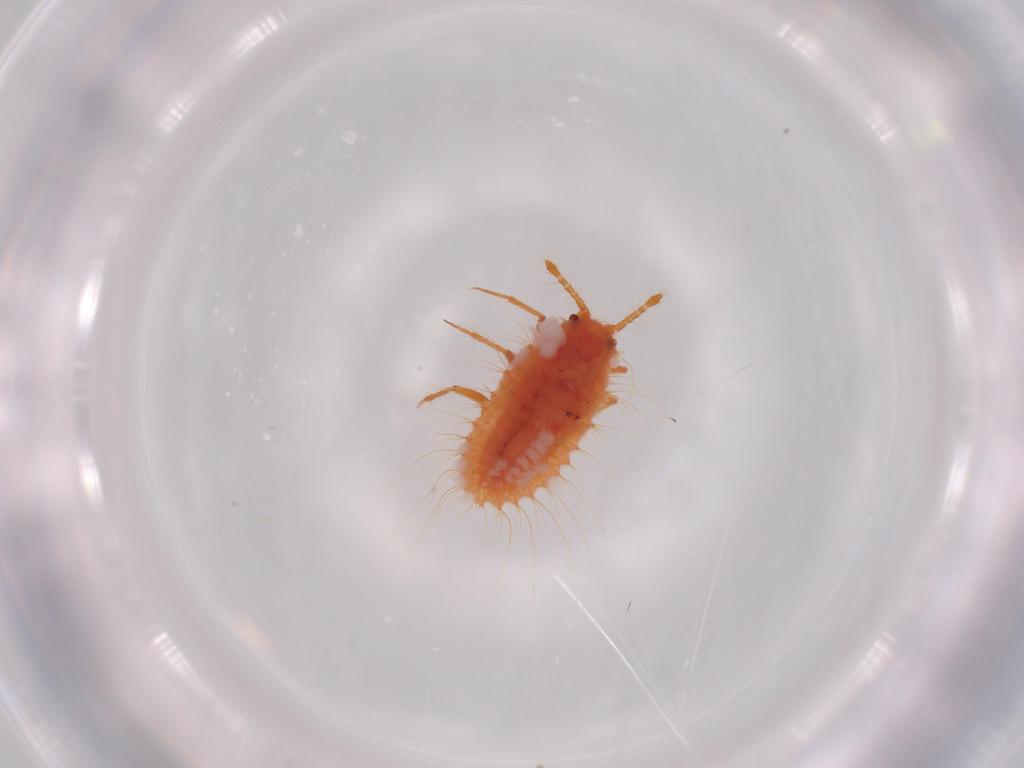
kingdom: Animalia
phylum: Arthropoda
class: Insecta
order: Hemiptera
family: Coccoidea_incertae_sedis
